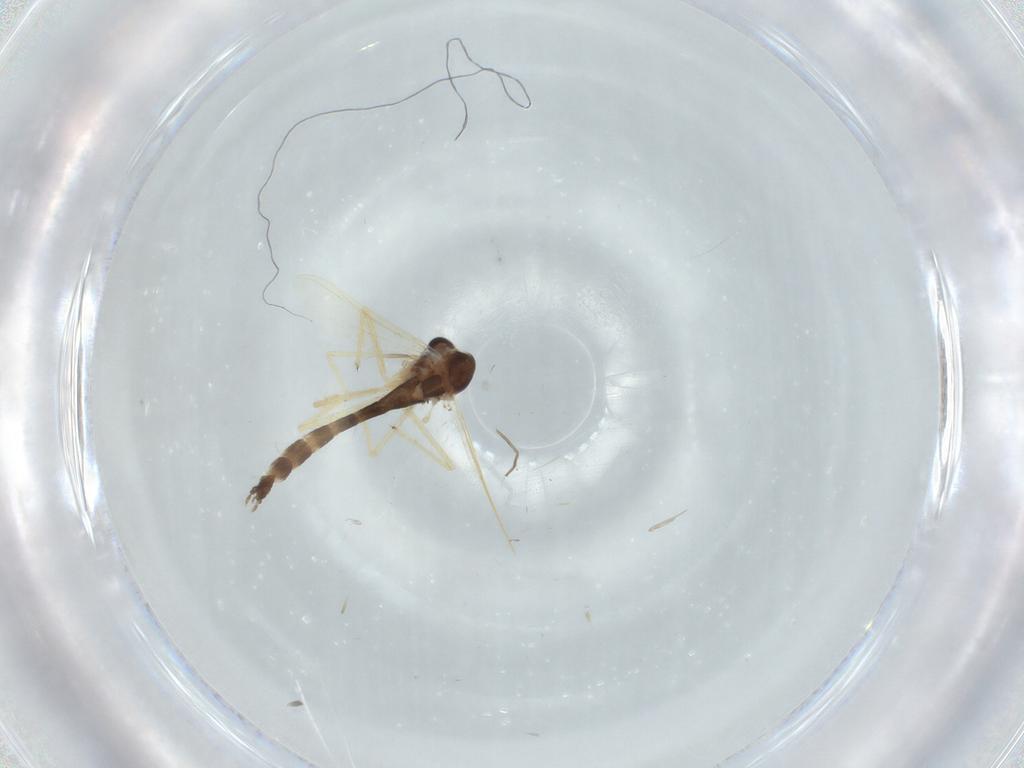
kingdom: Animalia
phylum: Arthropoda
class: Insecta
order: Diptera
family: Chironomidae
